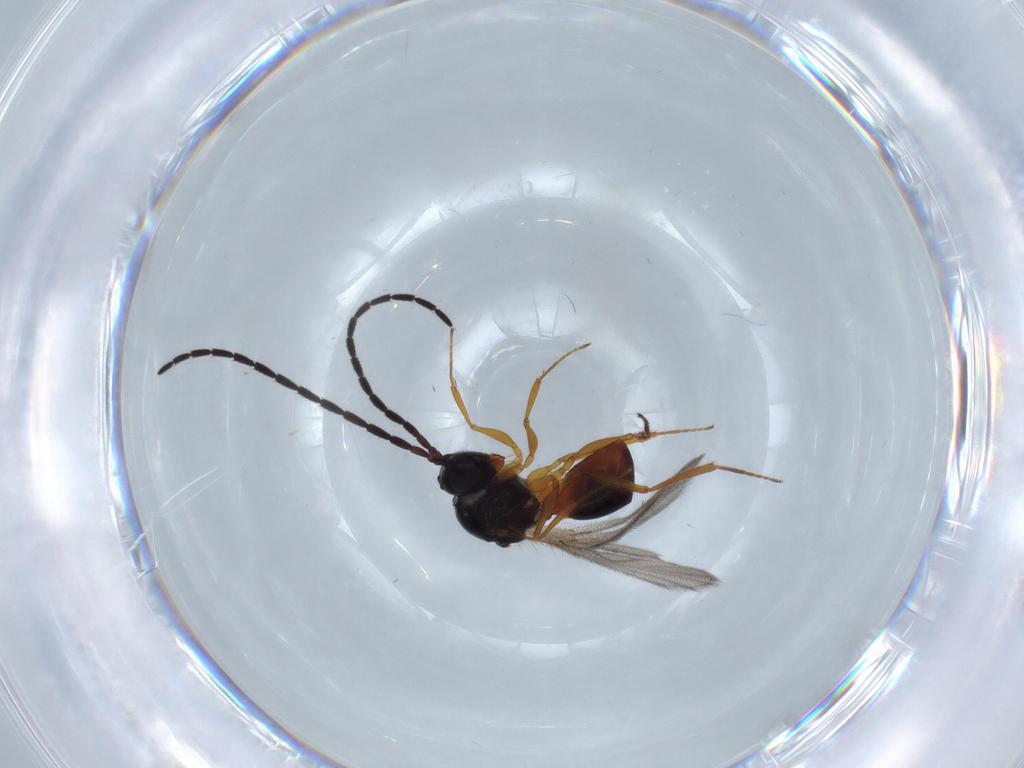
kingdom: Animalia
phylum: Arthropoda
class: Insecta
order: Hymenoptera
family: Figitidae
